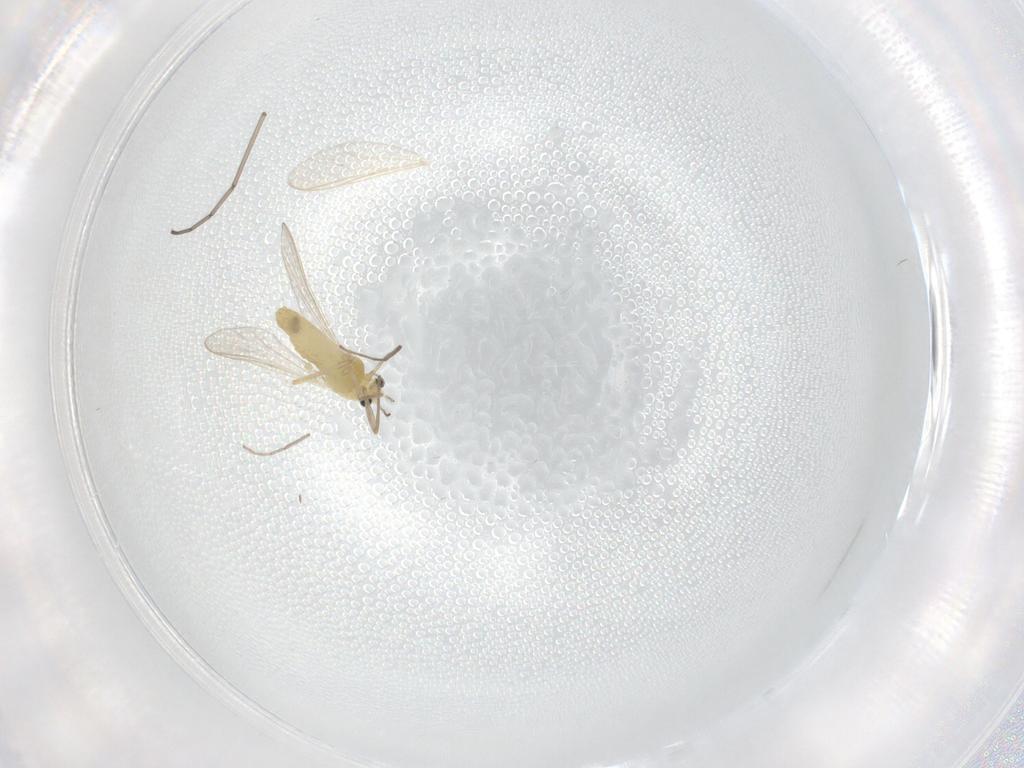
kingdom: Animalia
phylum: Arthropoda
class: Insecta
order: Diptera
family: Chironomidae
